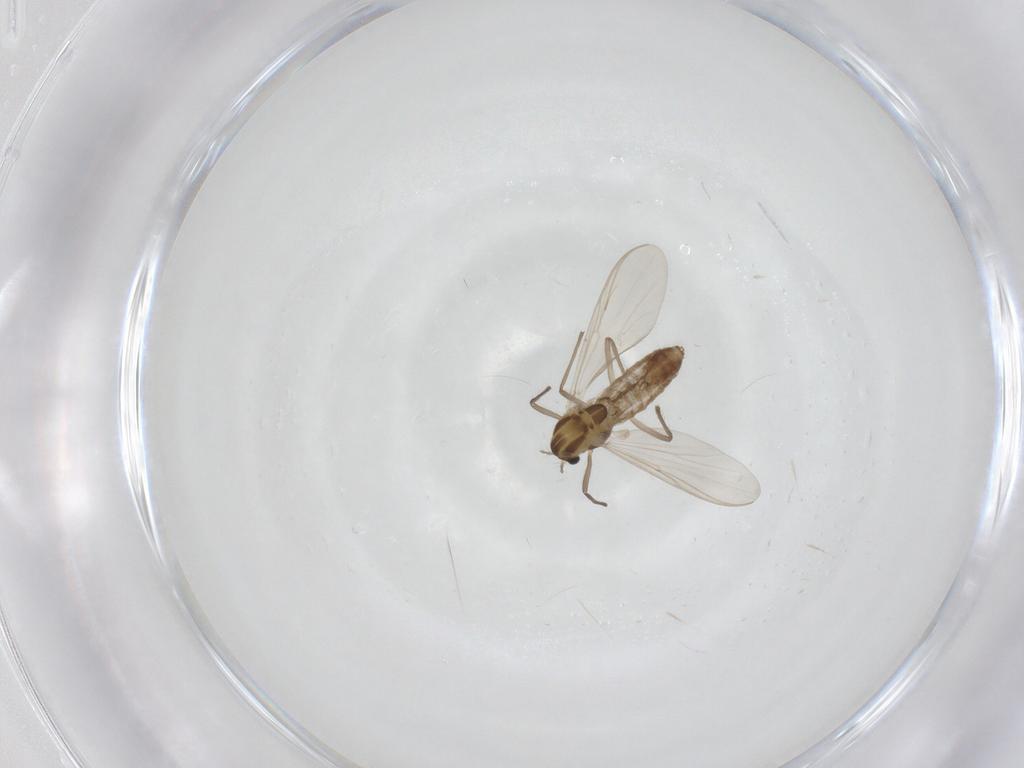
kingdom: Animalia
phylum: Arthropoda
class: Insecta
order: Diptera
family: Chironomidae
